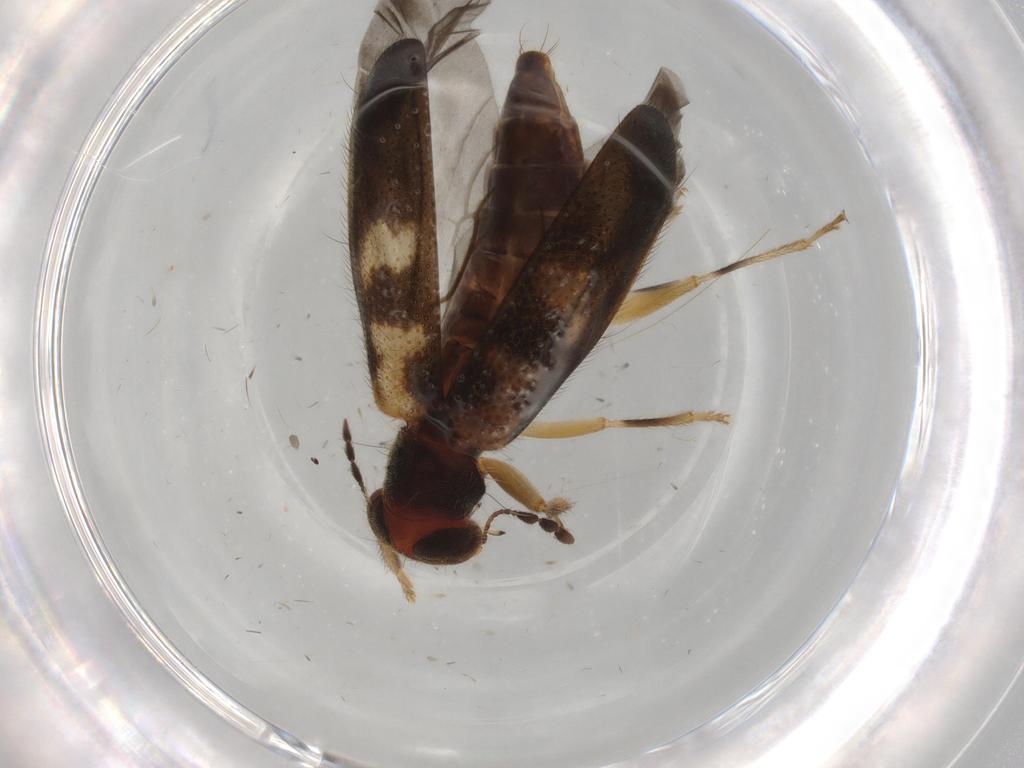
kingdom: Animalia
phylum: Arthropoda
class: Insecta
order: Coleoptera
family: Cleridae
